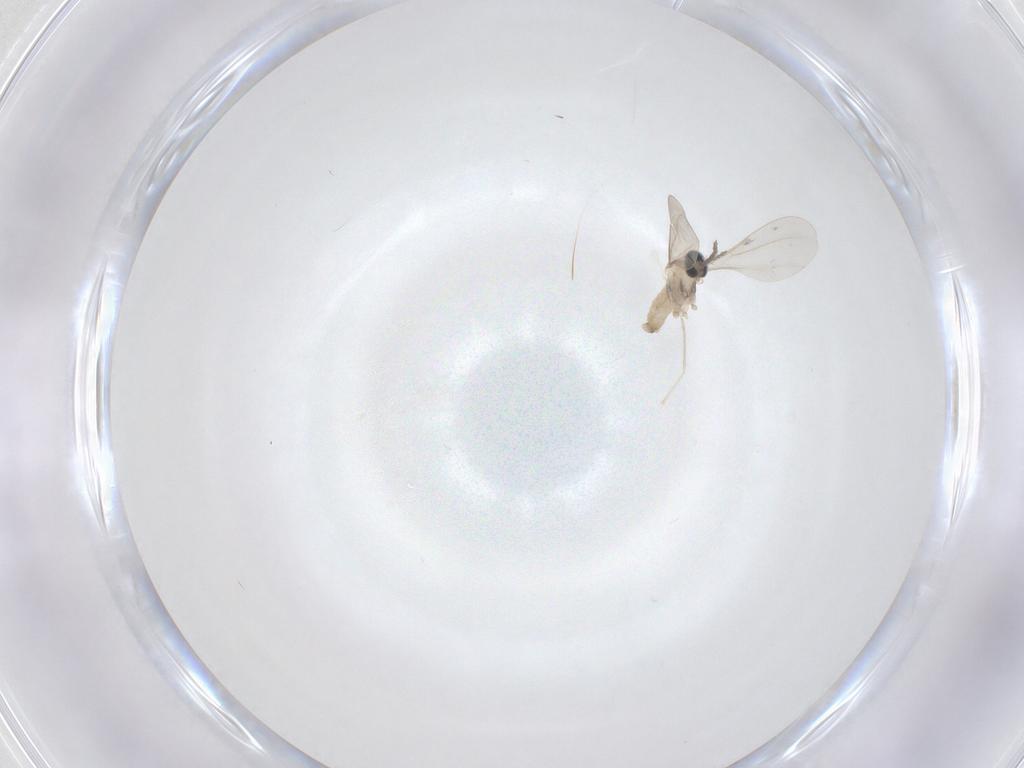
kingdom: Animalia
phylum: Arthropoda
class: Insecta
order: Diptera
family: Cecidomyiidae
